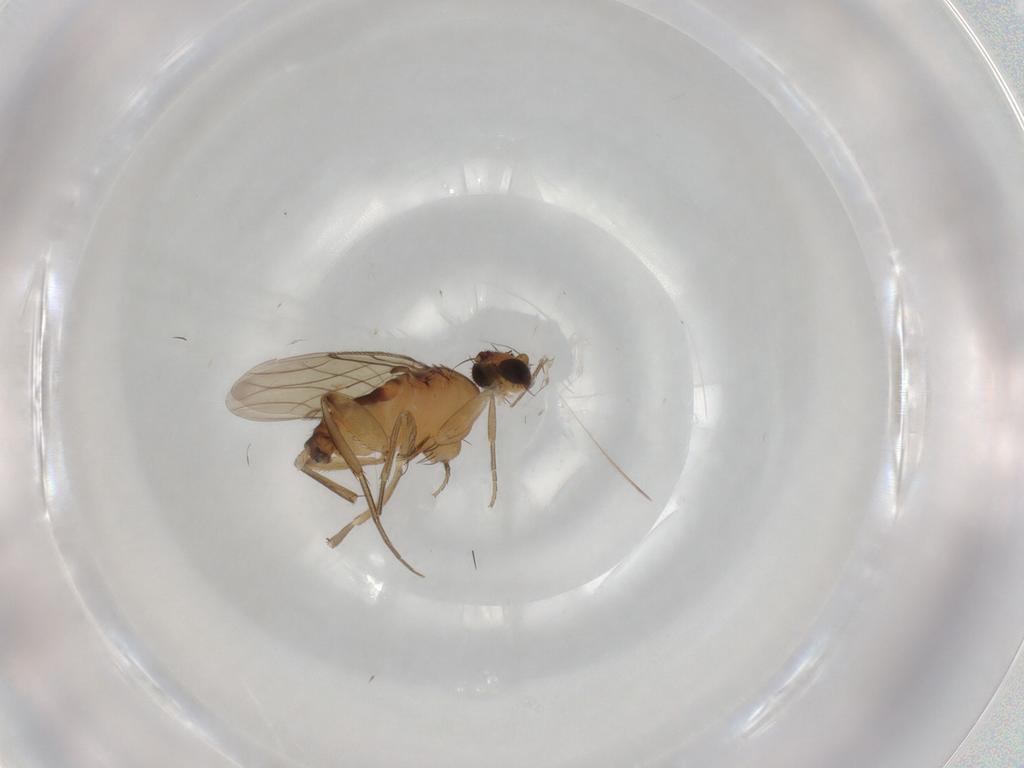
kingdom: Animalia
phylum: Arthropoda
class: Insecta
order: Diptera
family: Phoridae
